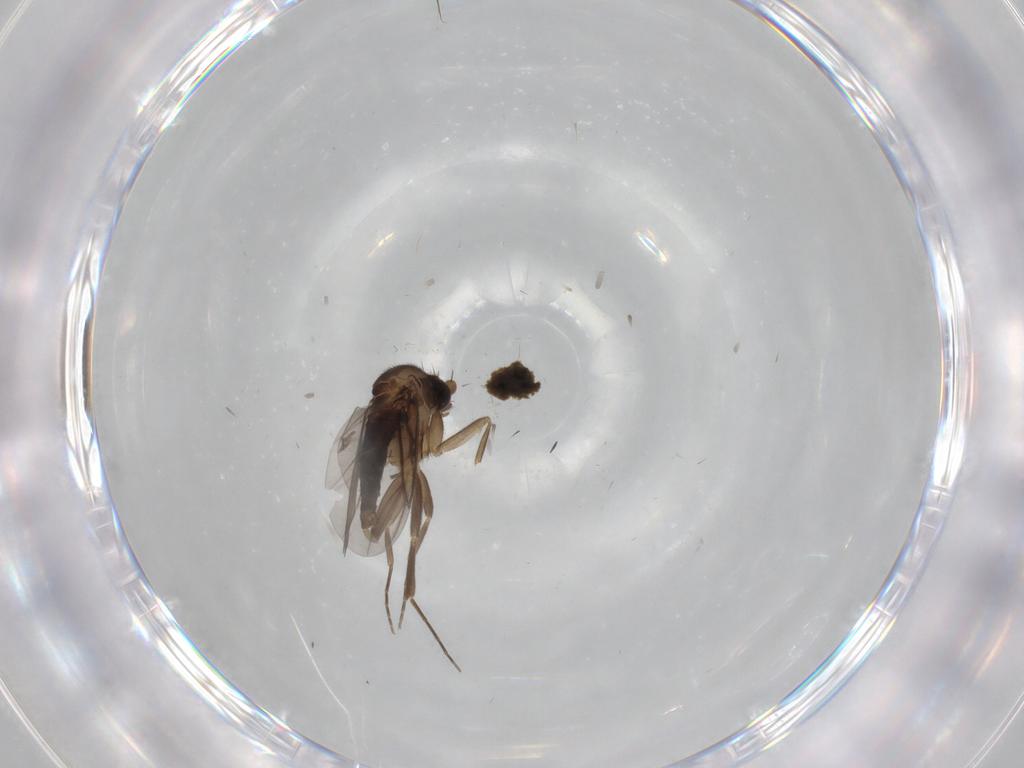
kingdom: Animalia
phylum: Arthropoda
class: Insecta
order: Diptera
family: Phoridae
